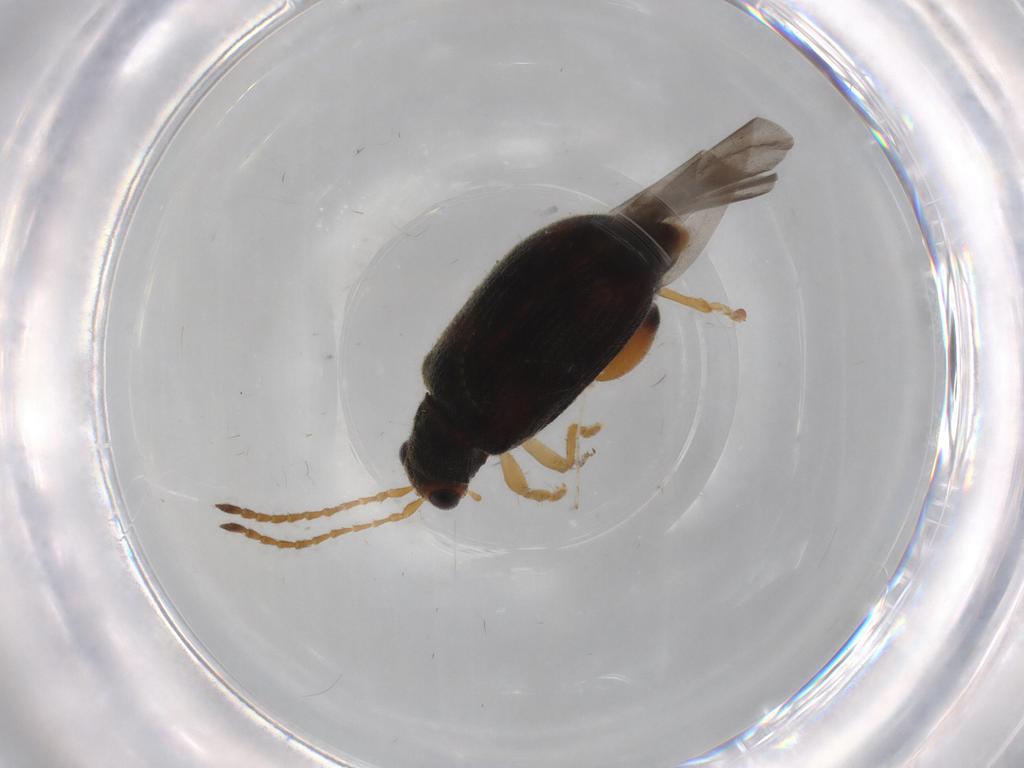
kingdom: Animalia
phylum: Arthropoda
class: Insecta
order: Coleoptera
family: Chrysomelidae
